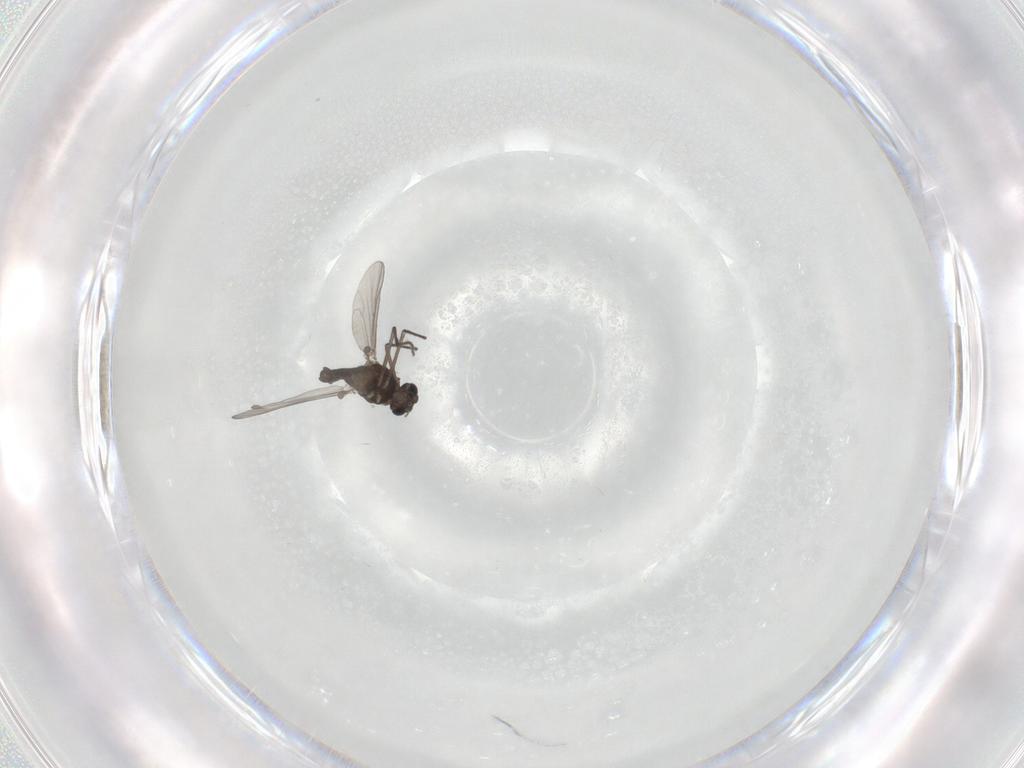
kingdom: Animalia
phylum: Arthropoda
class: Insecta
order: Diptera
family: Chironomidae
